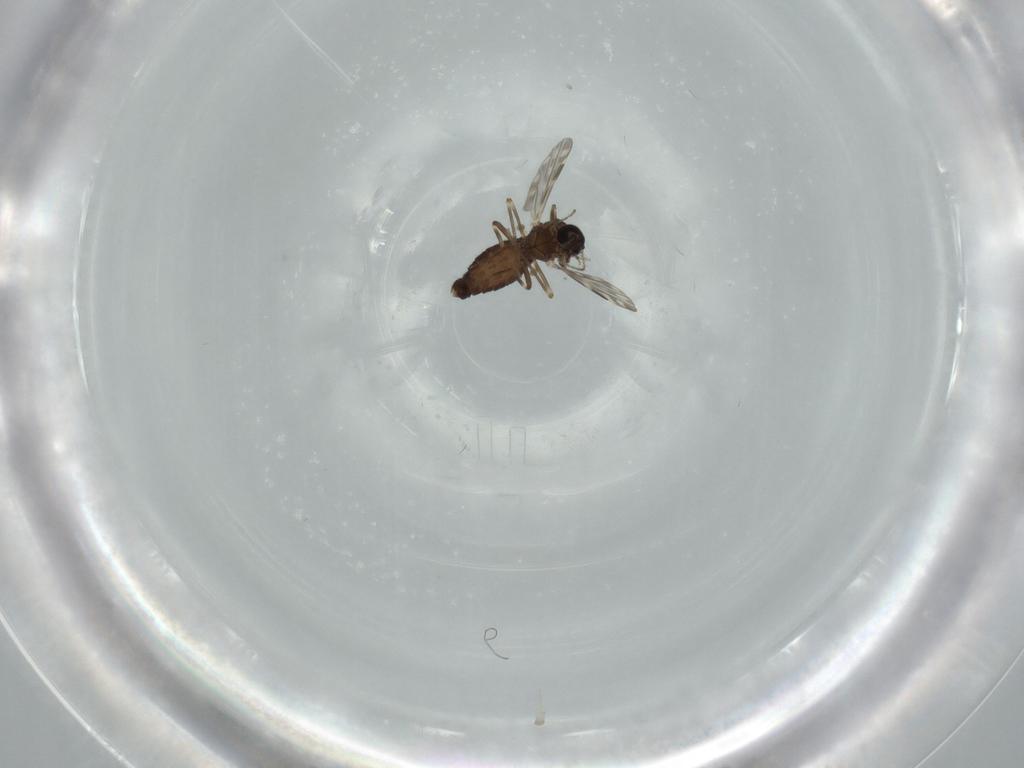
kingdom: Animalia
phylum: Arthropoda
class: Insecta
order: Diptera
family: Ceratopogonidae
